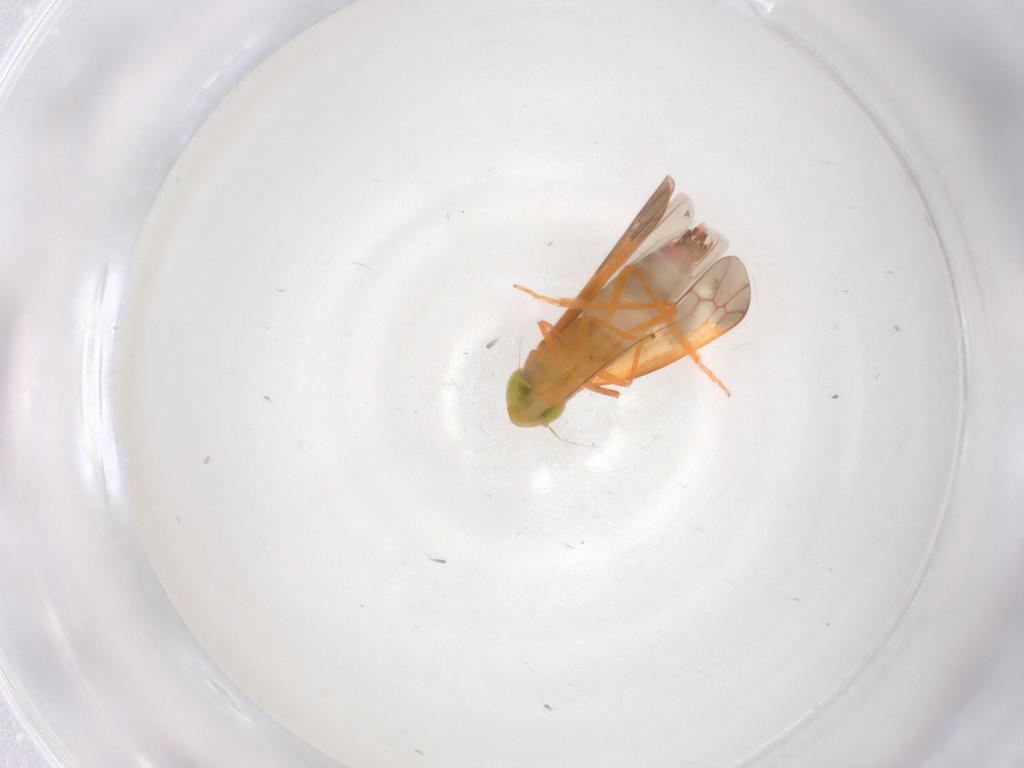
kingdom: Animalia
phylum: Arthropoda
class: Insecta
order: Hemiptera
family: Cicadellidae
